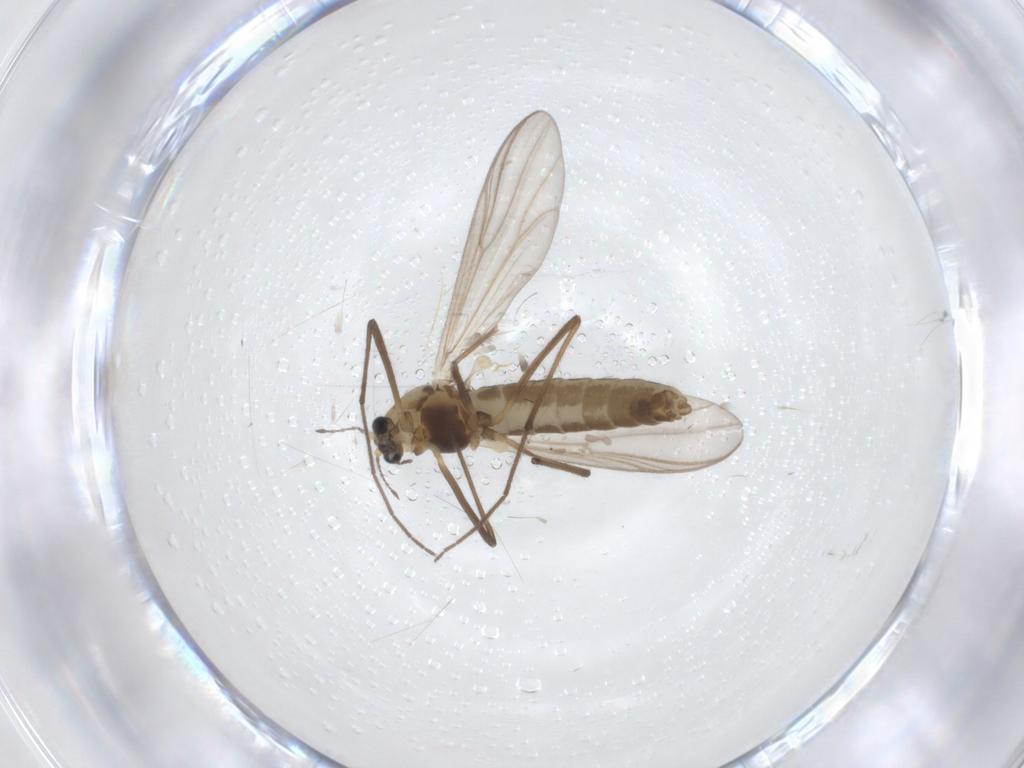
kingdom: Animalia
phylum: Arthropoda
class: Insecta
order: Diptera
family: Chironomidae
